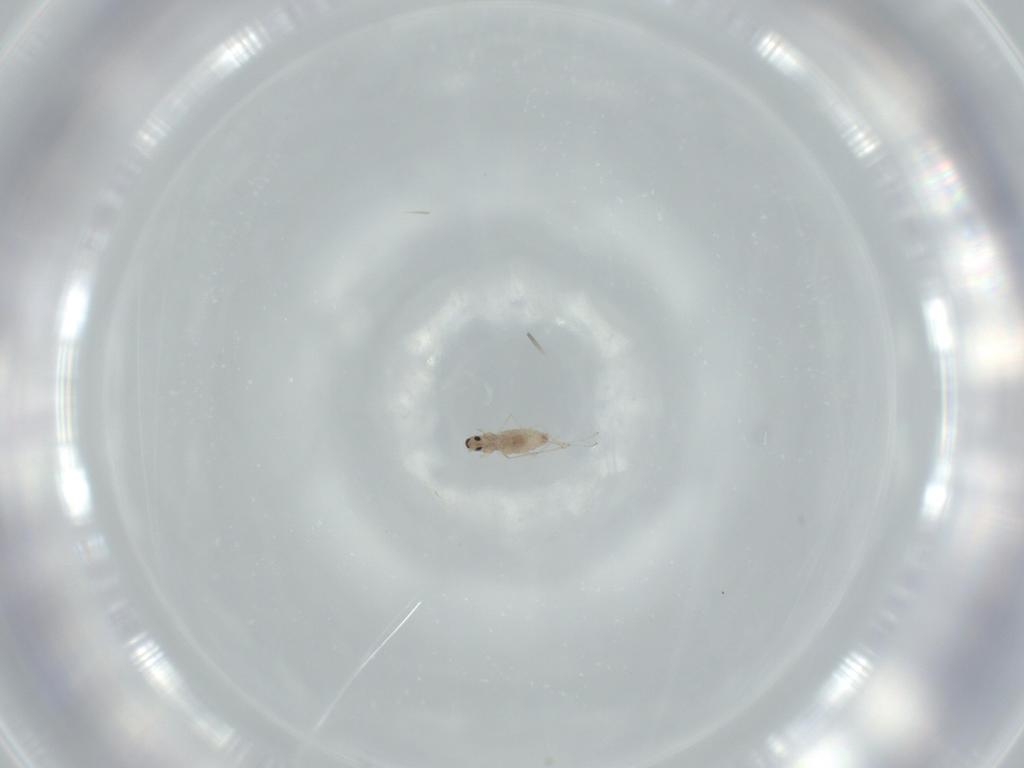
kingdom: Animalia
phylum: Arthropoda
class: Insecta
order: Diptera
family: Cecidomyiidae
